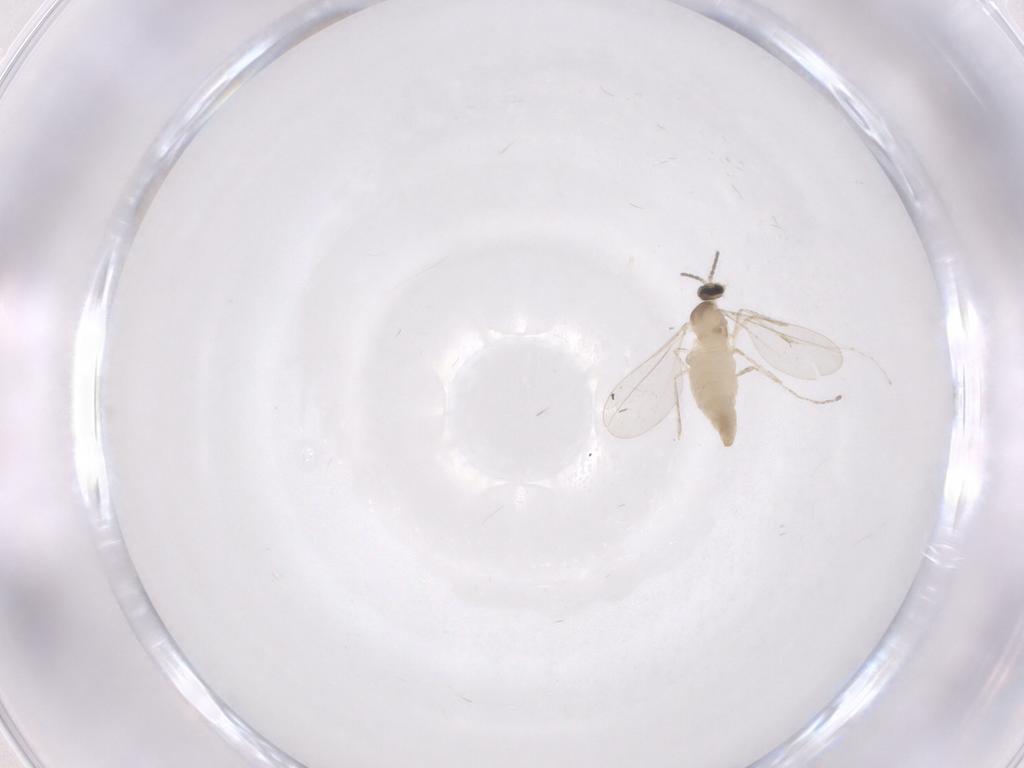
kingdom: Animalia
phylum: Arthropoda
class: Insecta
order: Diptera
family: Cecidomyiidae
